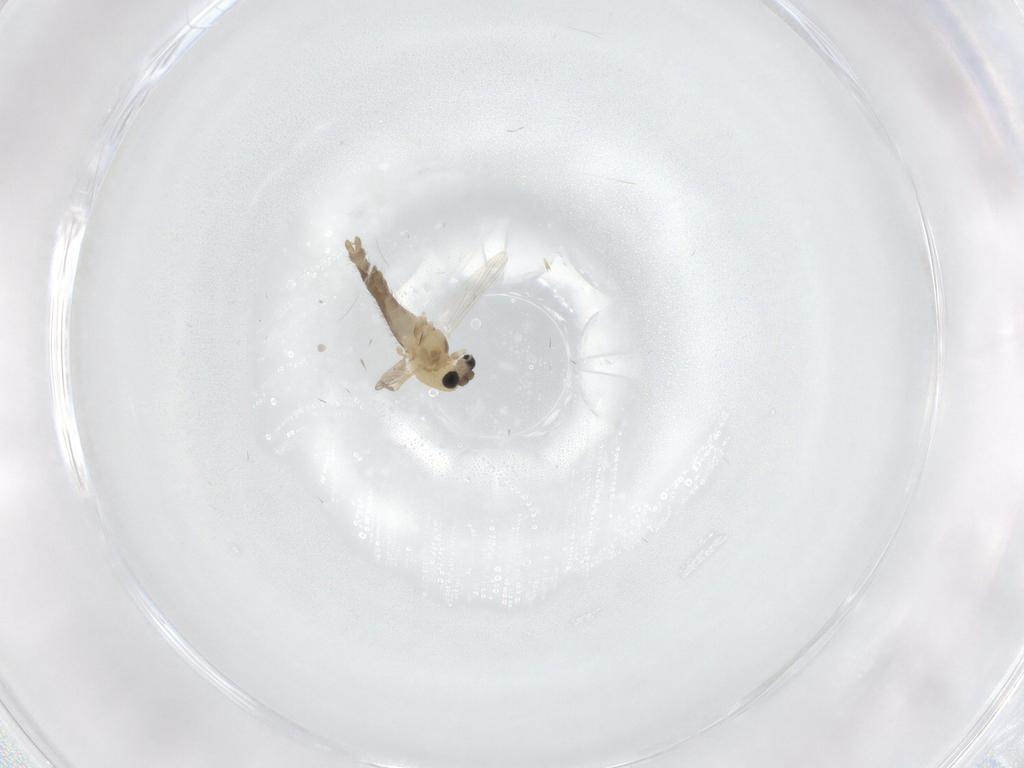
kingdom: Animalia
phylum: Arthropoda
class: Insecta
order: Diptera
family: Chironomidae
